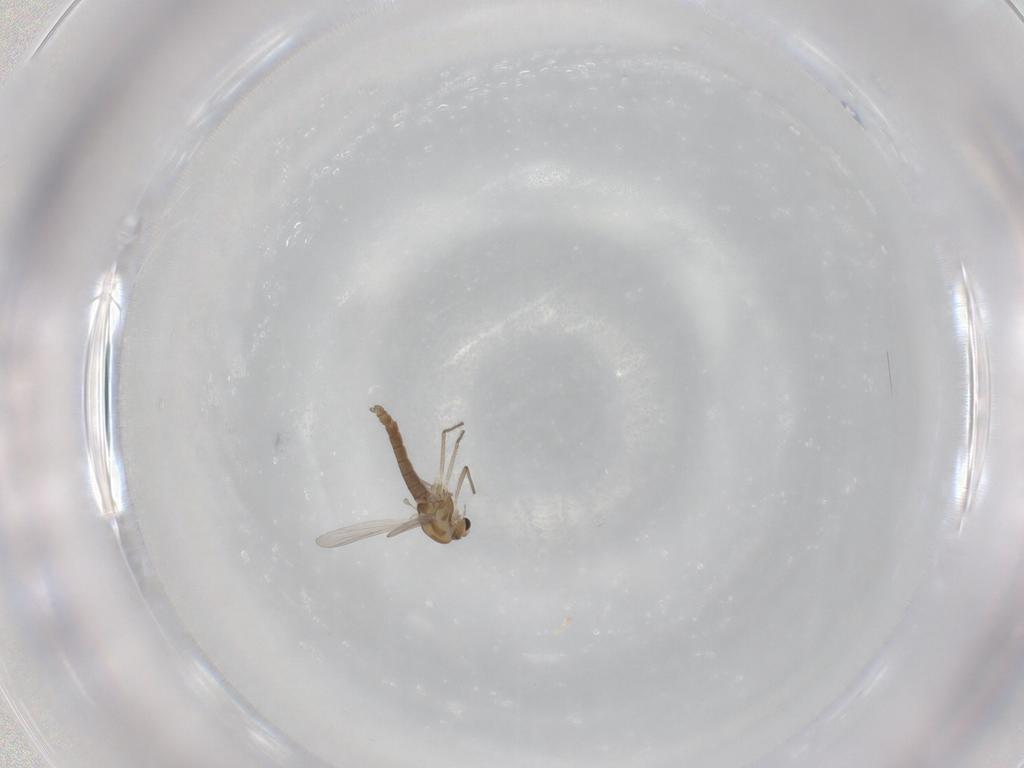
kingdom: Animalia
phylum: Arthropoda
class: Insecta
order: Diptera
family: Chironomidae
